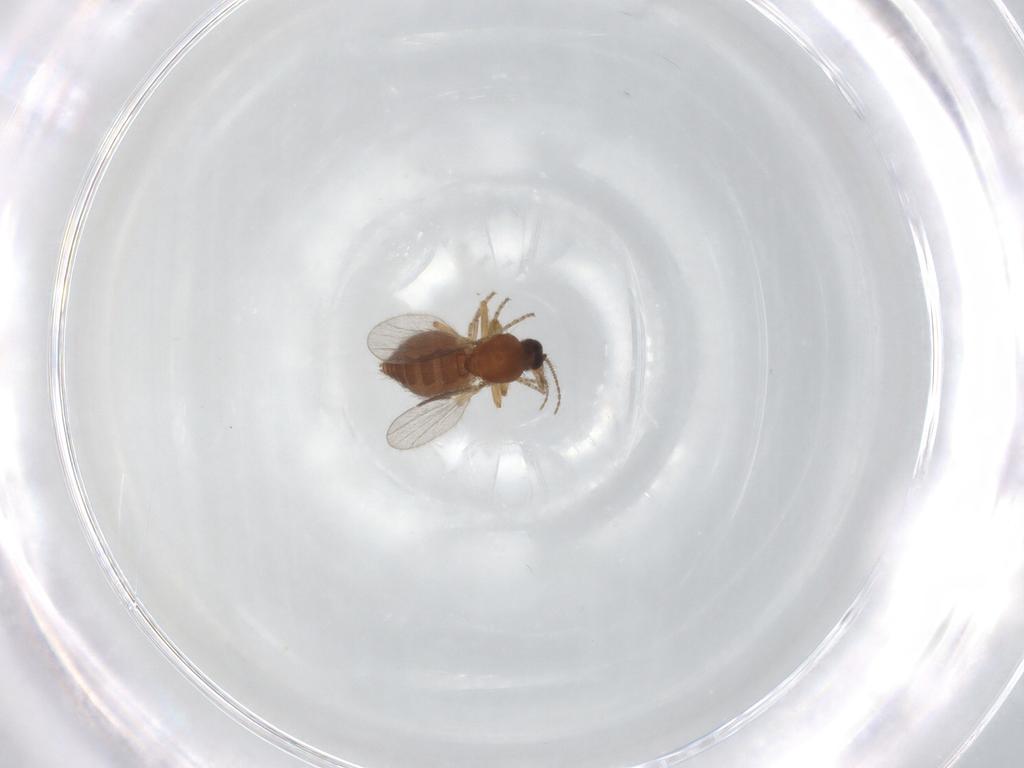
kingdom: Animalia
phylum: Arthropoda
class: Insecta
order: Diptera
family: Ceratopogonidae
